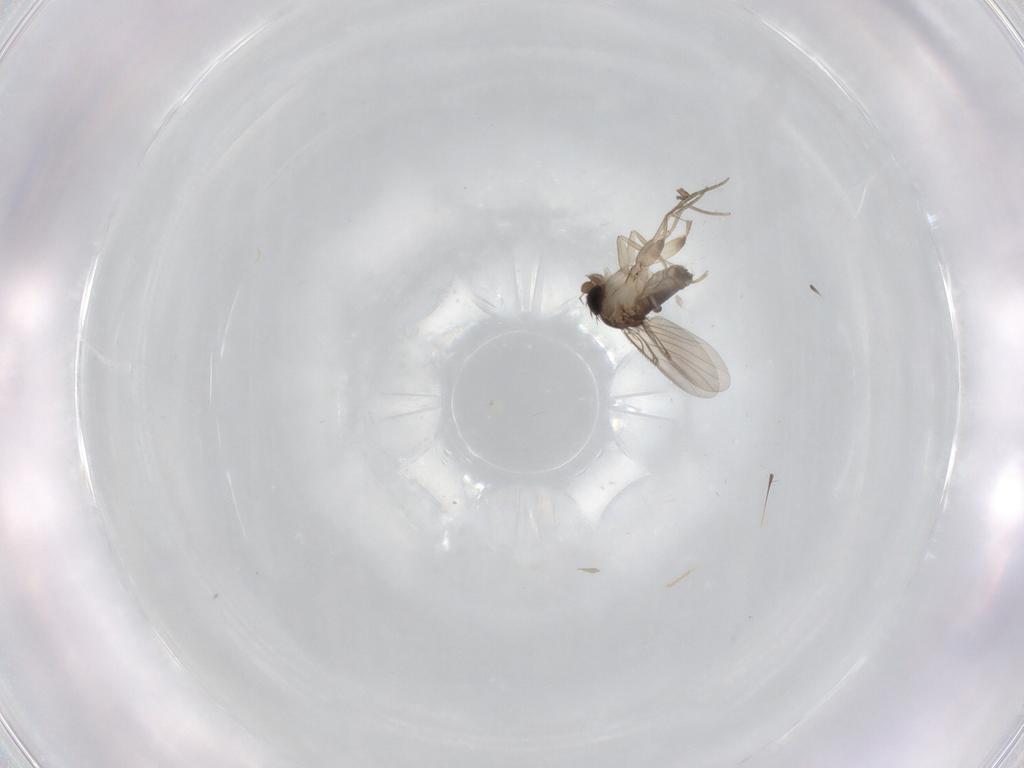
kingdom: Animalia
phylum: Arthropoda
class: Insecta
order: Diptera
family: Phoridae
